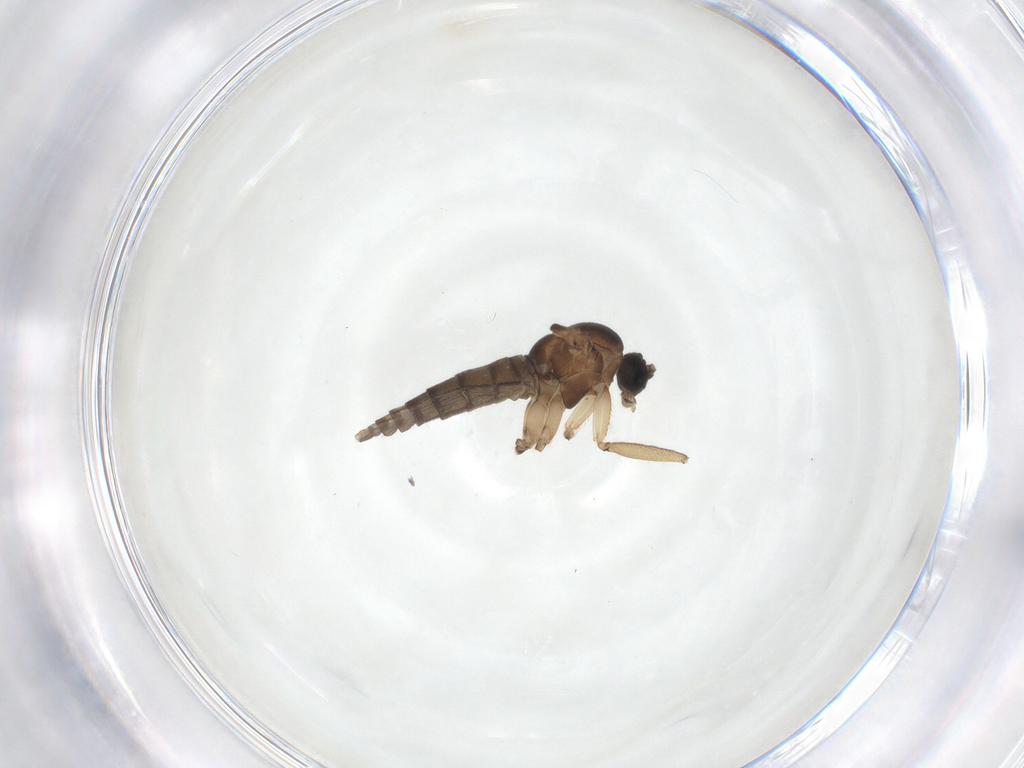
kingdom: Animalia
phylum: Arthropoda
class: Insecta
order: Diptera
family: Sciaridae
